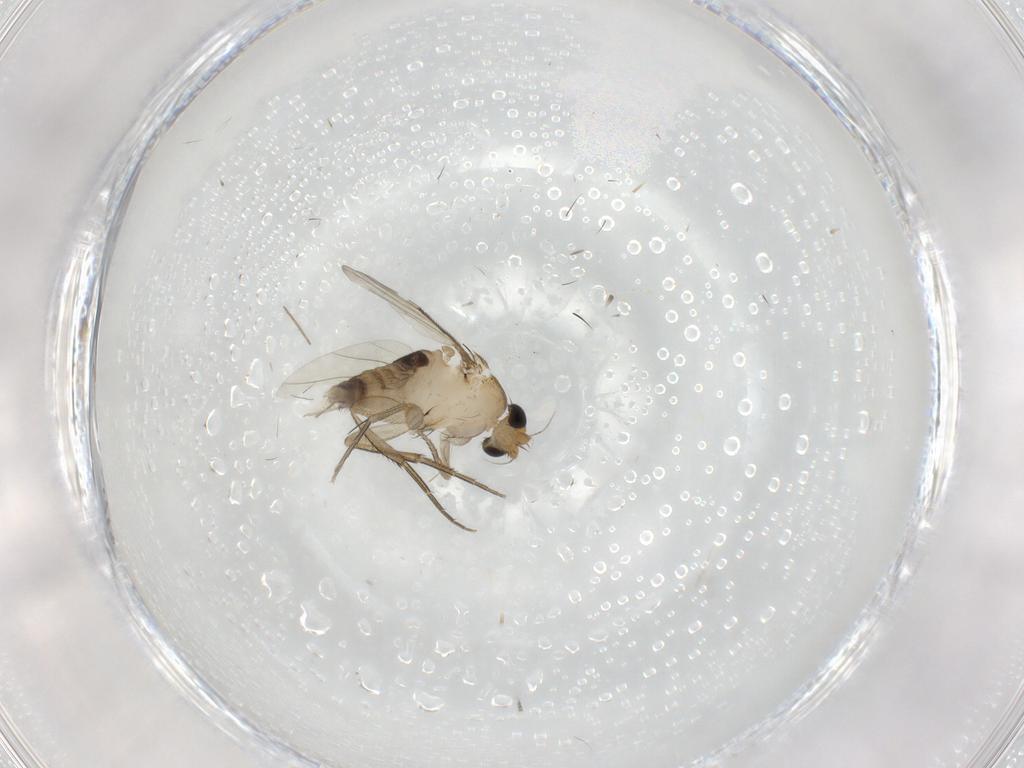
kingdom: Animalia
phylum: Arthropoda
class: Insecta
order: Diptera
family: Phoridae
